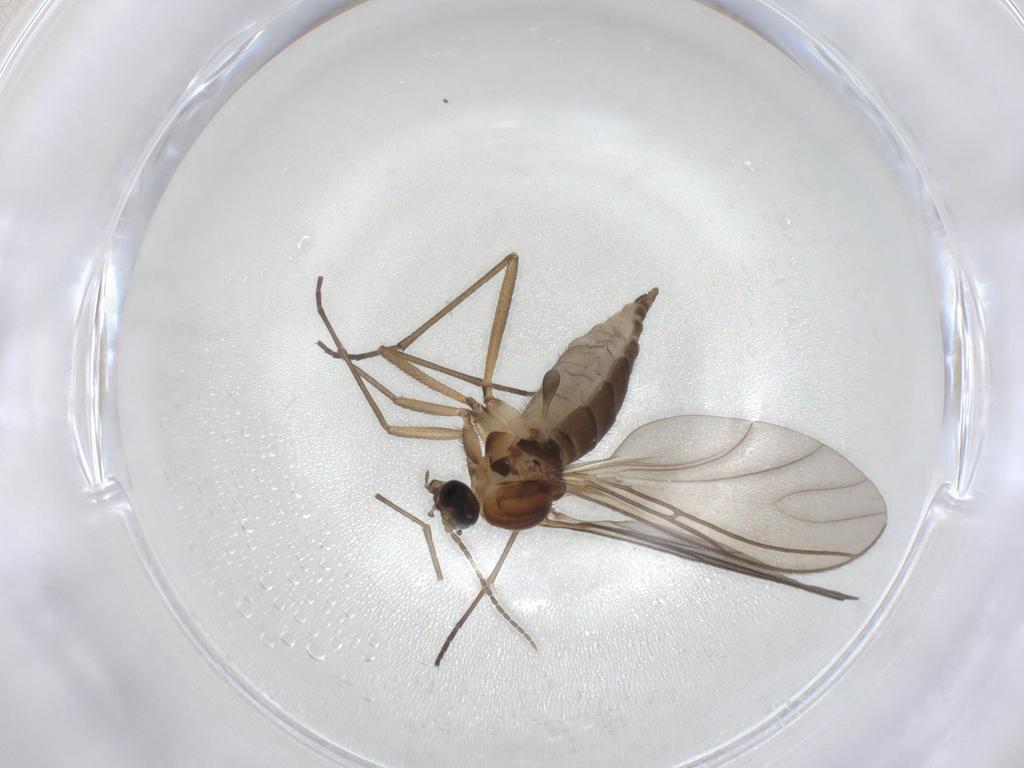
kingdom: Animalia
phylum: Arthropoda
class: Insecta
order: Diptera
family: Sciaridae
